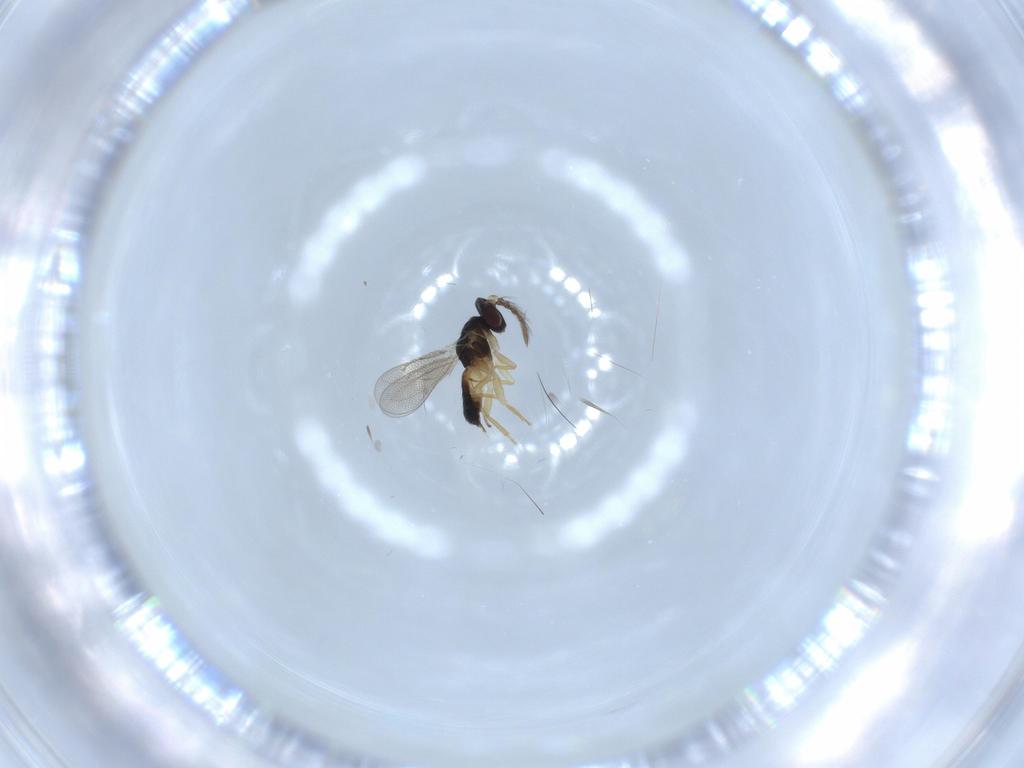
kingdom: Animalia
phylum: Arthropoda
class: Insecta
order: Hymenoptera
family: Eulophidae
